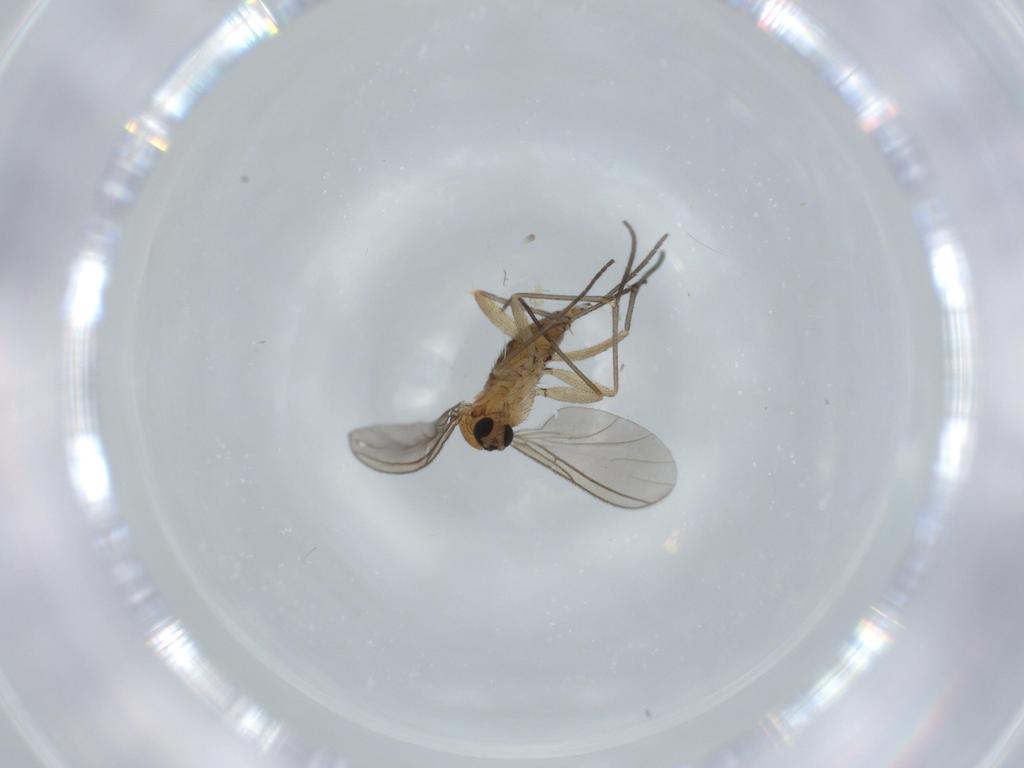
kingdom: Animalia
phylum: Arthropoda
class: Insecta
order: Diptera
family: Sciaridae
